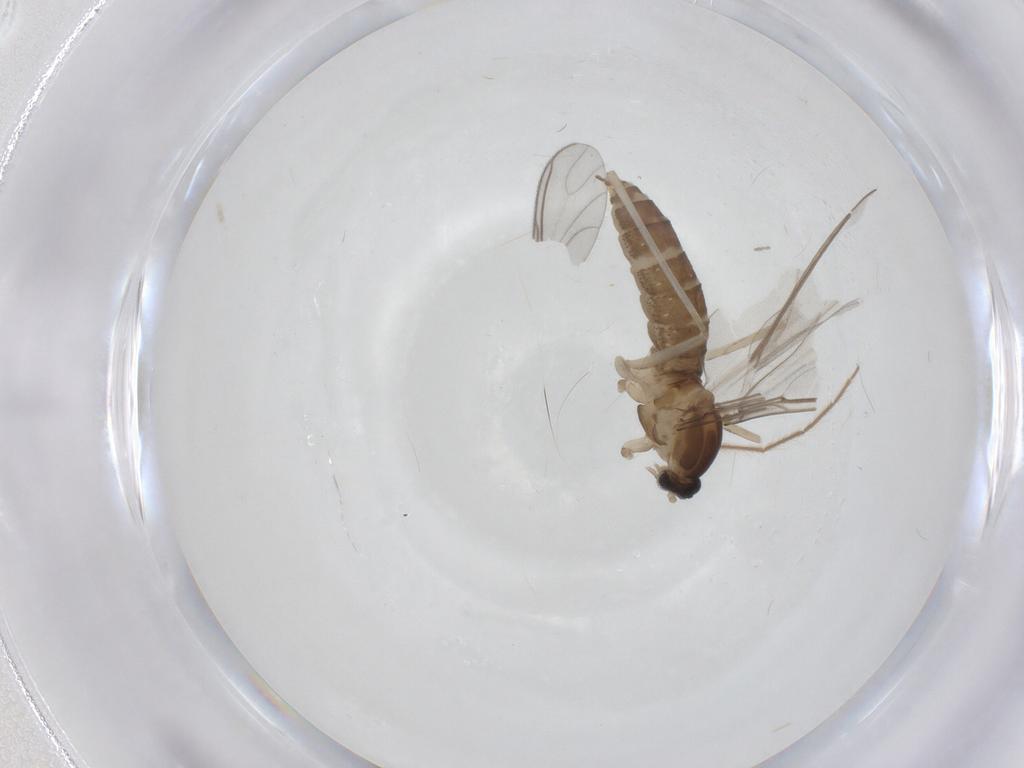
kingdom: Animalia
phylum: Arthropoda
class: Insecta
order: Diptera
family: Cecidomyiidae
